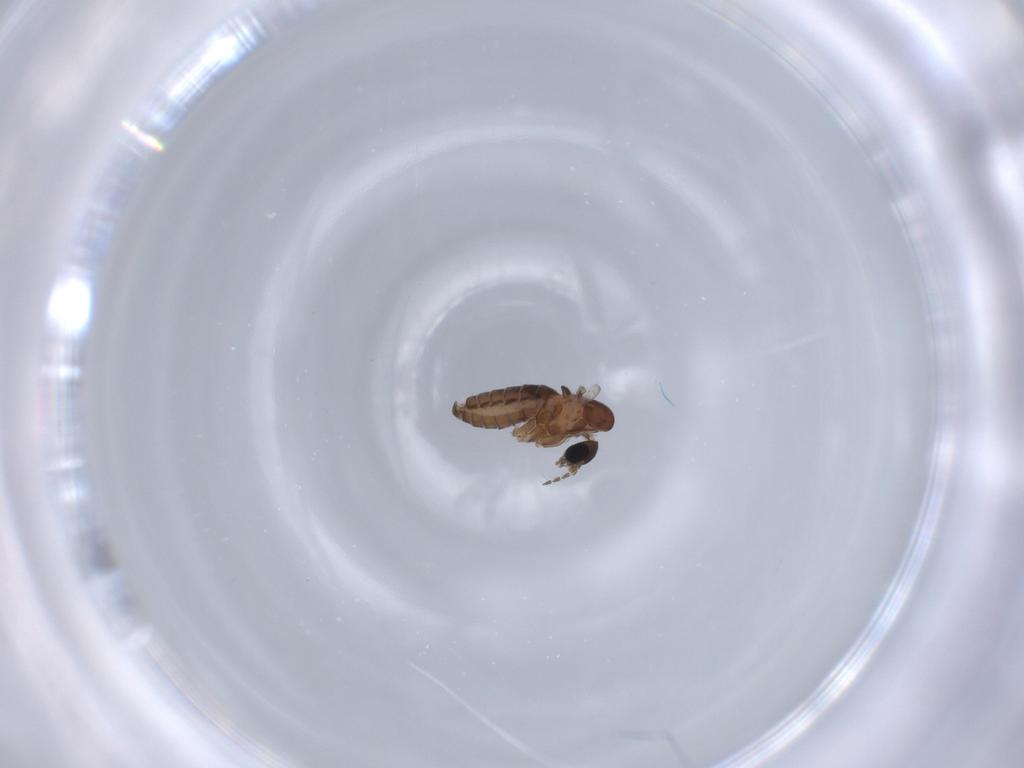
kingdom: Animalia
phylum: Arthropoda
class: Insecta
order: Diptera
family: Psychodidae
